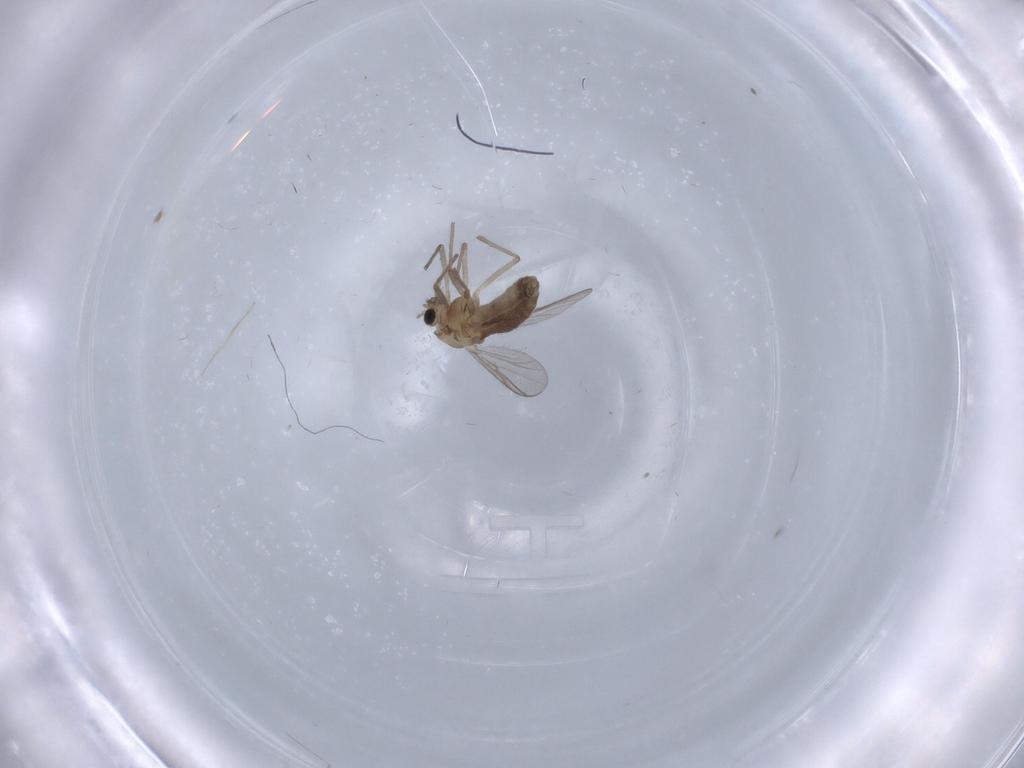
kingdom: Animalia
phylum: Arthropoda
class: Insecta
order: Diptera
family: Chironomidae
